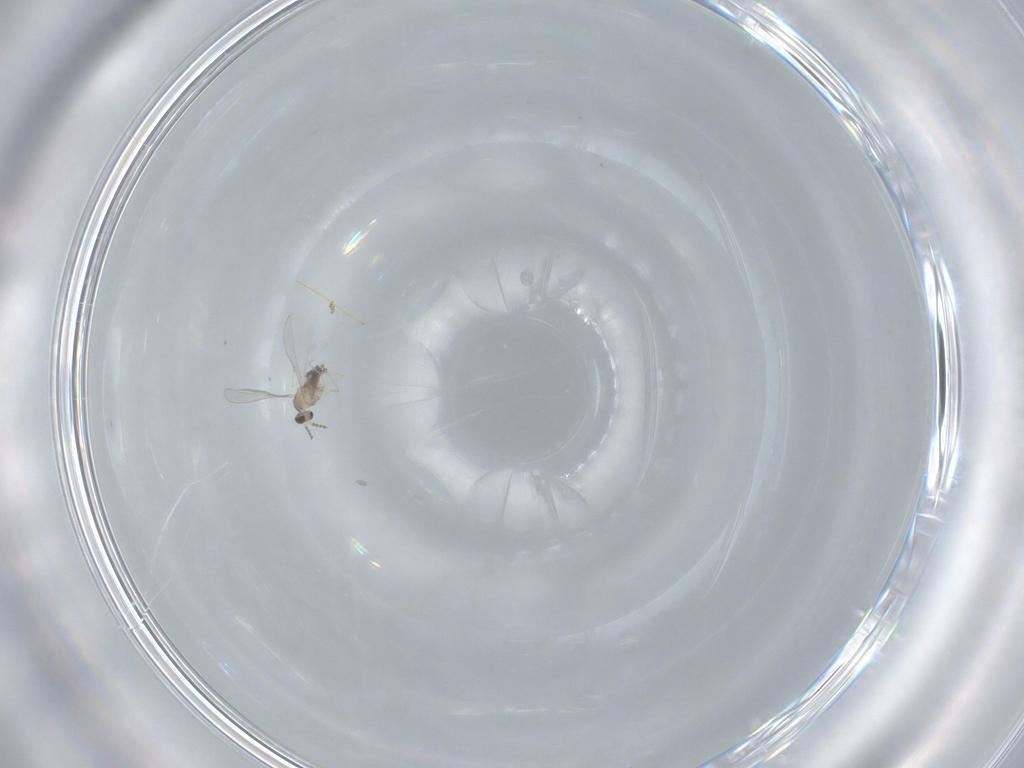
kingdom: Animalia
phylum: Arthropoda
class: Insecta
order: Diptera
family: Cecidomyiidae
